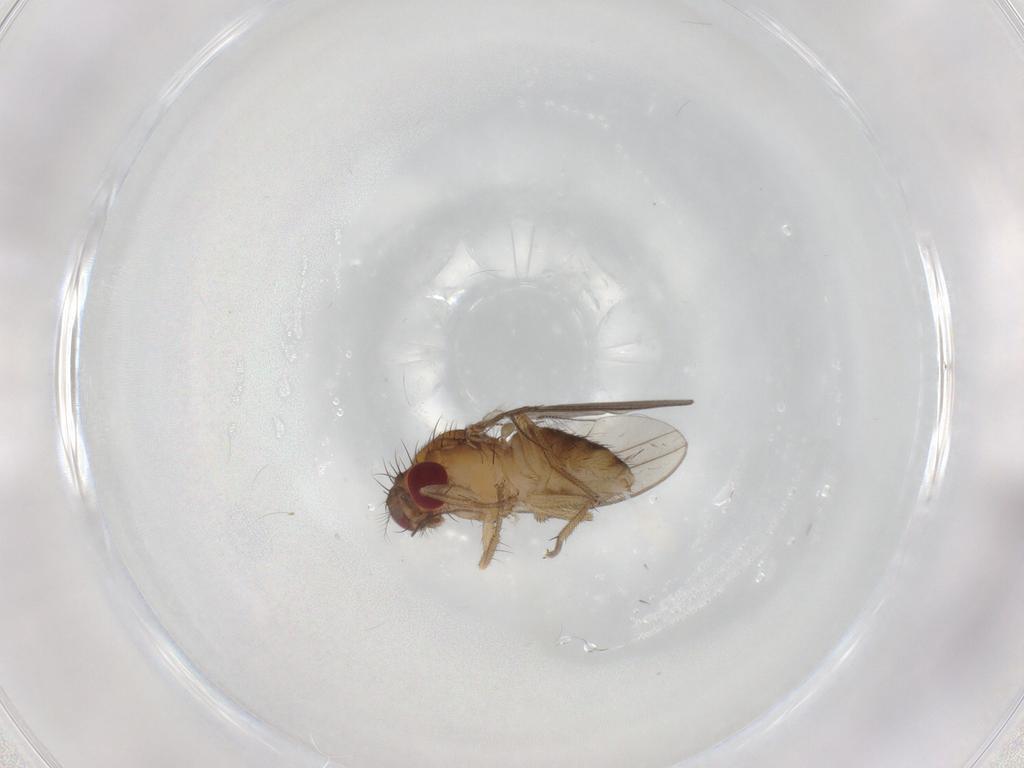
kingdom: Animalia
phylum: Arthropoda
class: Insecta
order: Diptera
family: Drosophilidae
